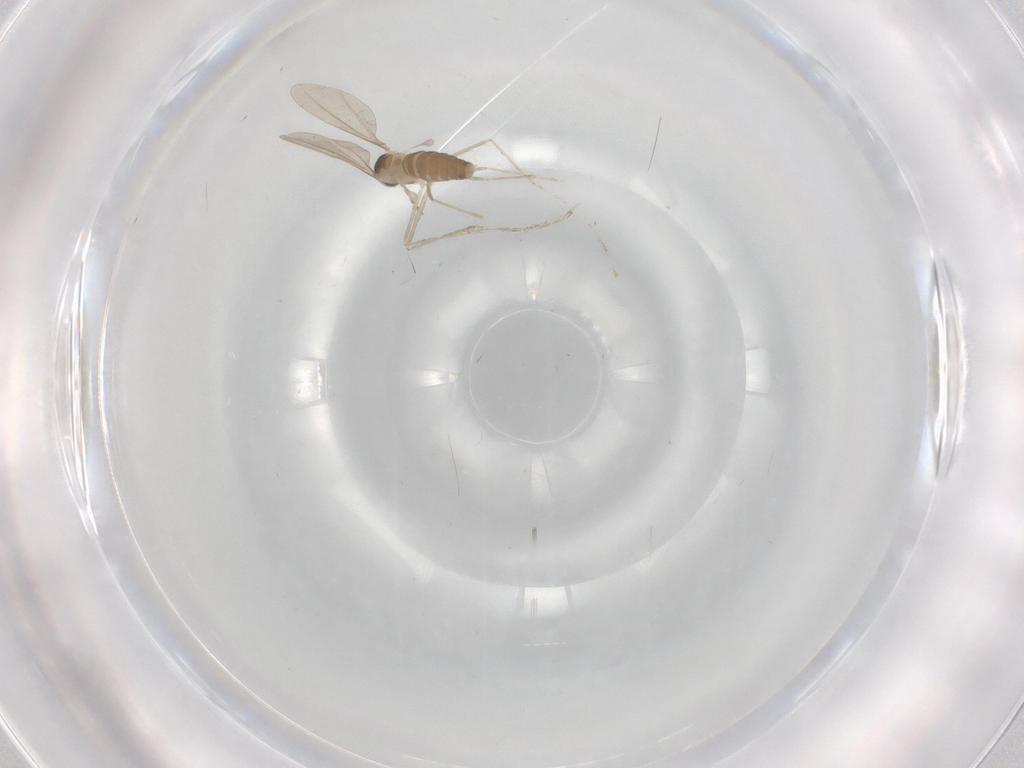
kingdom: Animalia
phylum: Arthropoda
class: Insecta
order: Diptera
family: Cecidomyiidae
